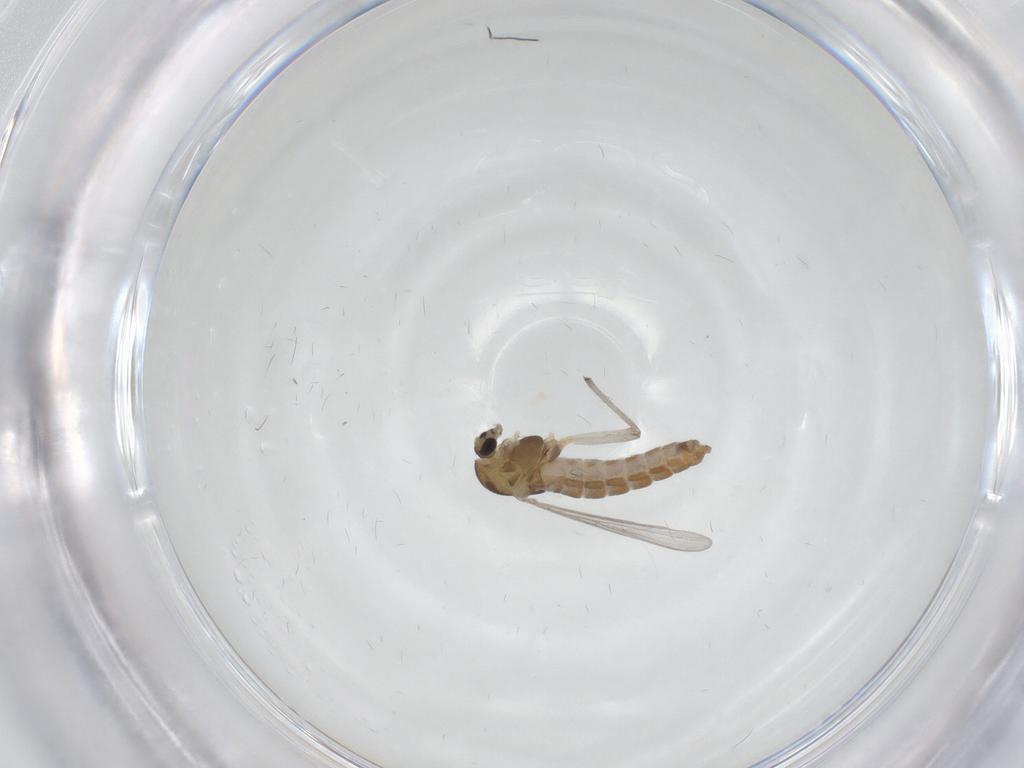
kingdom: Animalia
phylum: Arthropoda
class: Insecta
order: Diptera
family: Chironomidae
